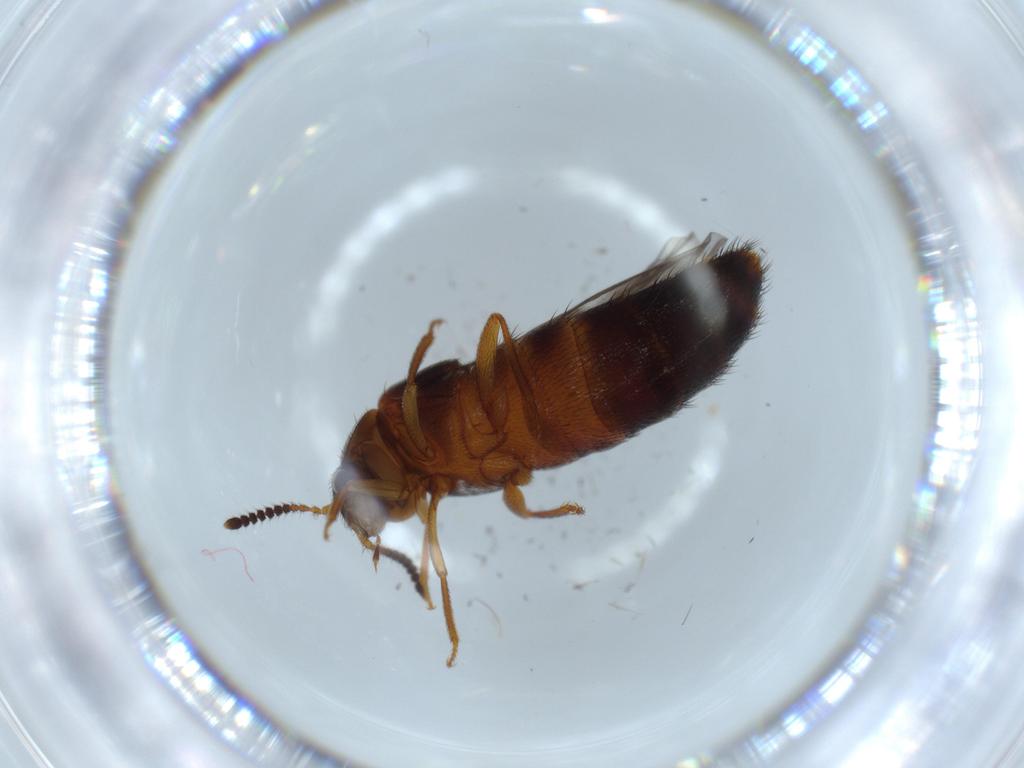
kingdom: Animalia
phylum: Arthropoda
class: Insecta
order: Coleoptera
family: Staphylinidae
